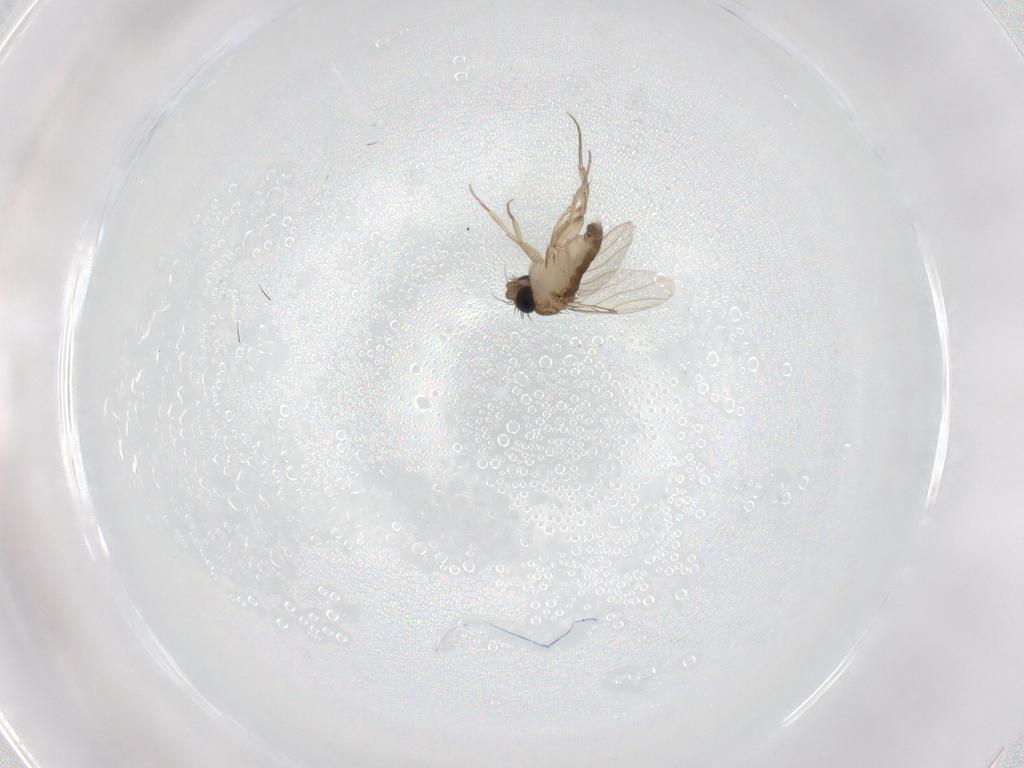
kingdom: Animalia
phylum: Arthropoda
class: Insecta
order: Diptera
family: Phoridae
